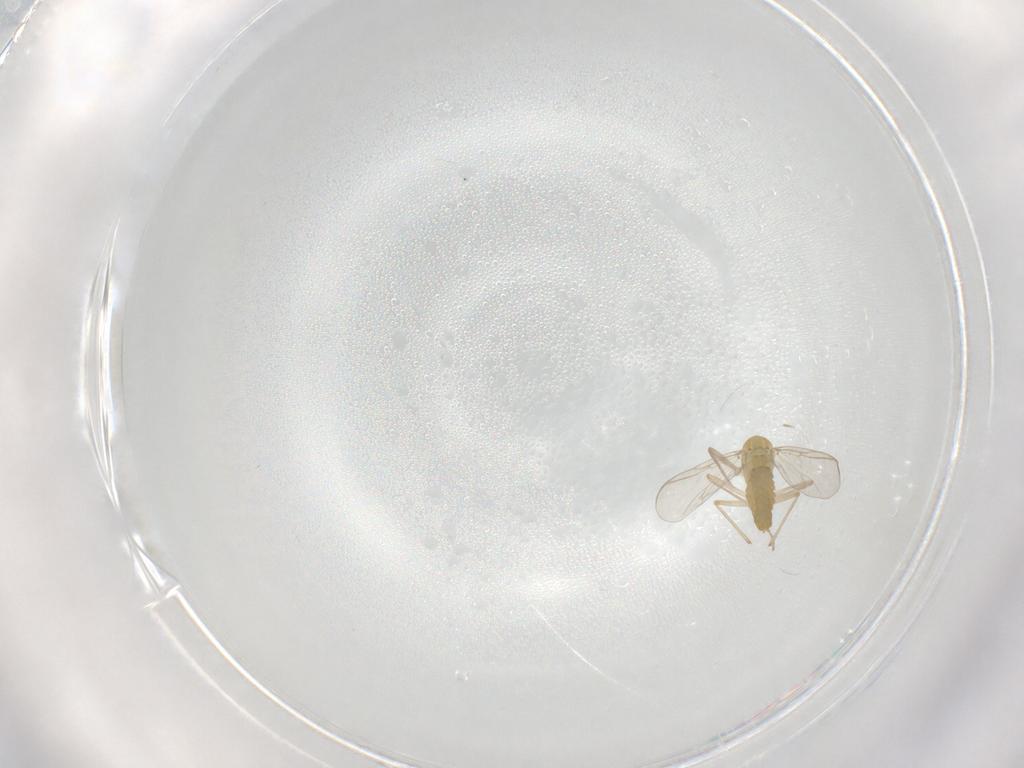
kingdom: Animalia
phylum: Arthropoda
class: Insecta
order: Diptera
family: Chironomidae
